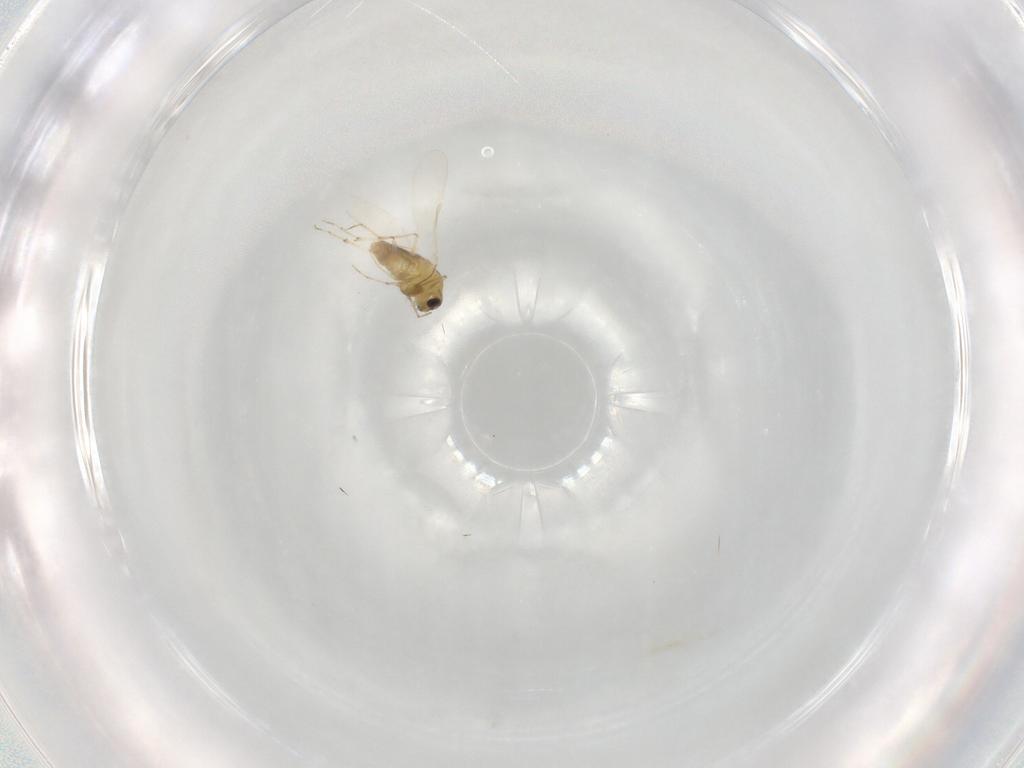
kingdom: Animalia
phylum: Arthropoda
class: Insecta
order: Diptera
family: Chironomidae
